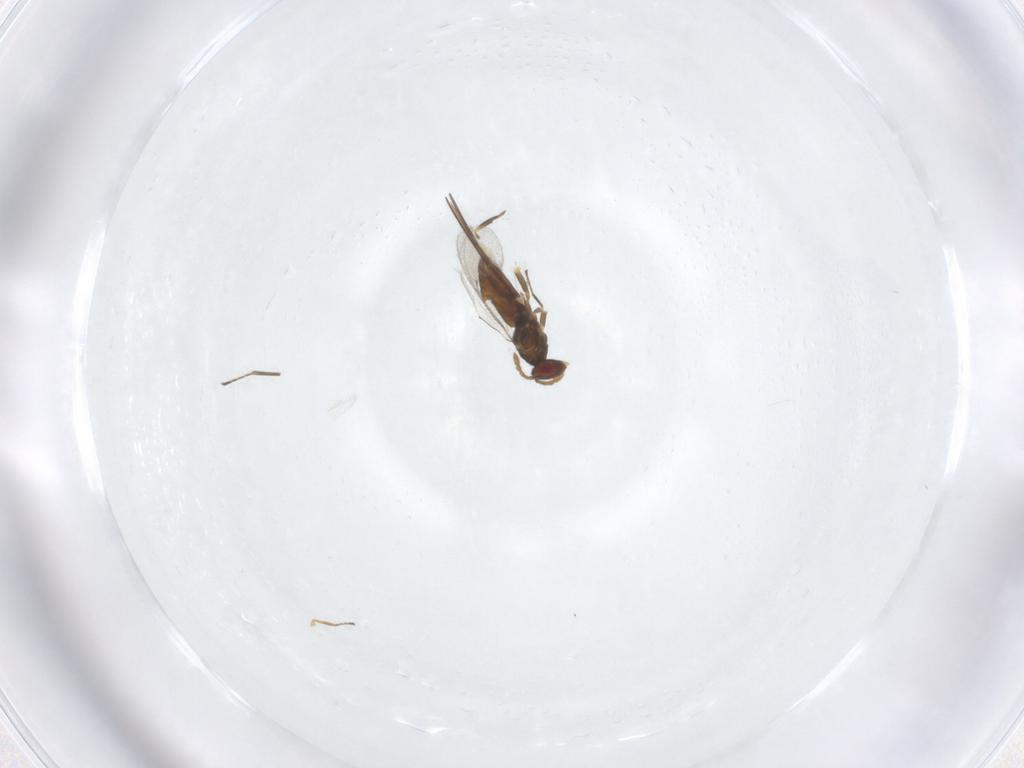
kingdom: Animalia
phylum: Arthropoda
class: Insecta
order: Hymenoptera
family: Eulophidae
